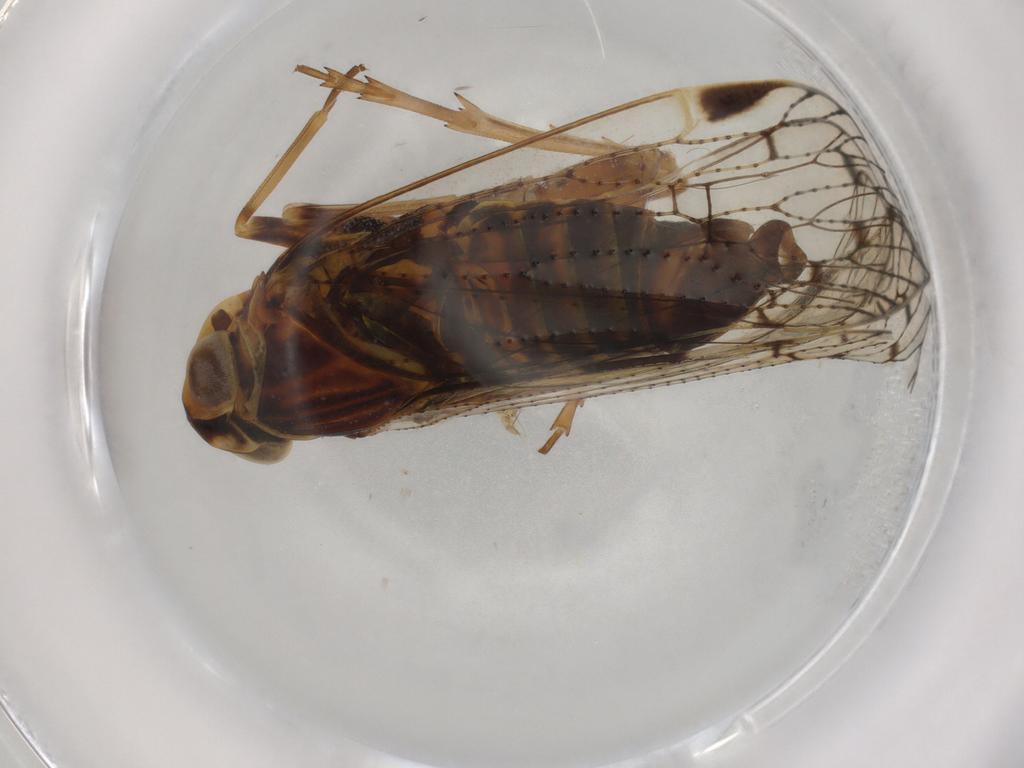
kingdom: Animalia
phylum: Arthropoda
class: Insecta
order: Hemiptera
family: Cixiidae
